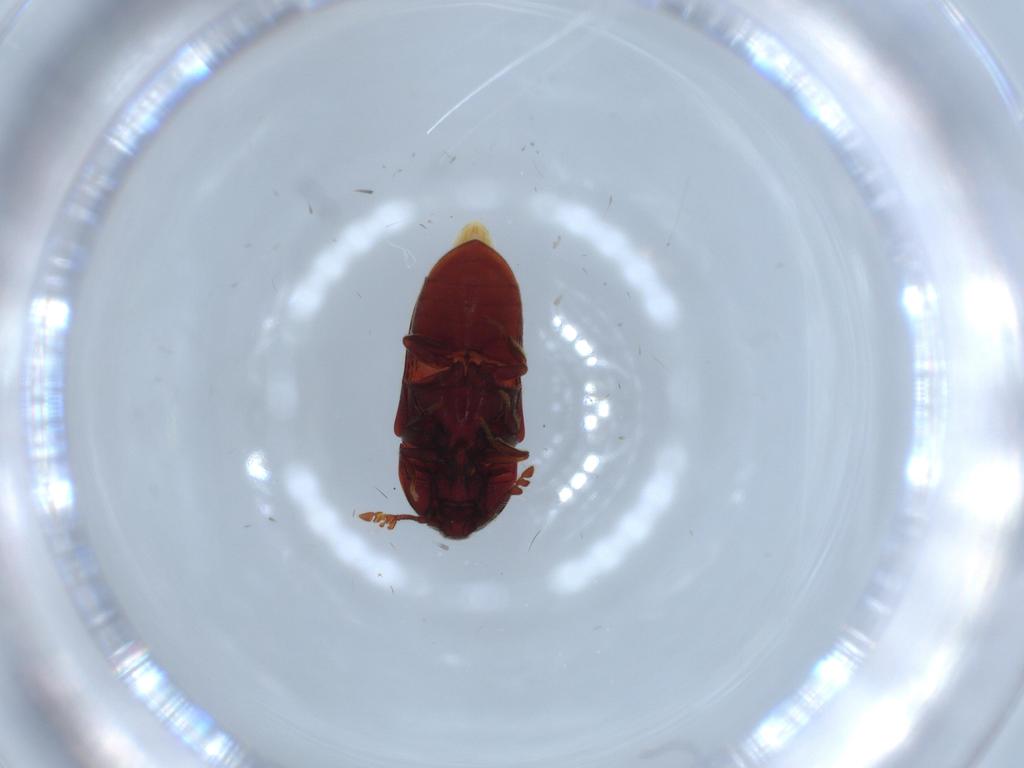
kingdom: Animalia
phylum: Arthropoda
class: Insecta
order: Coleoptera
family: Throscidae
